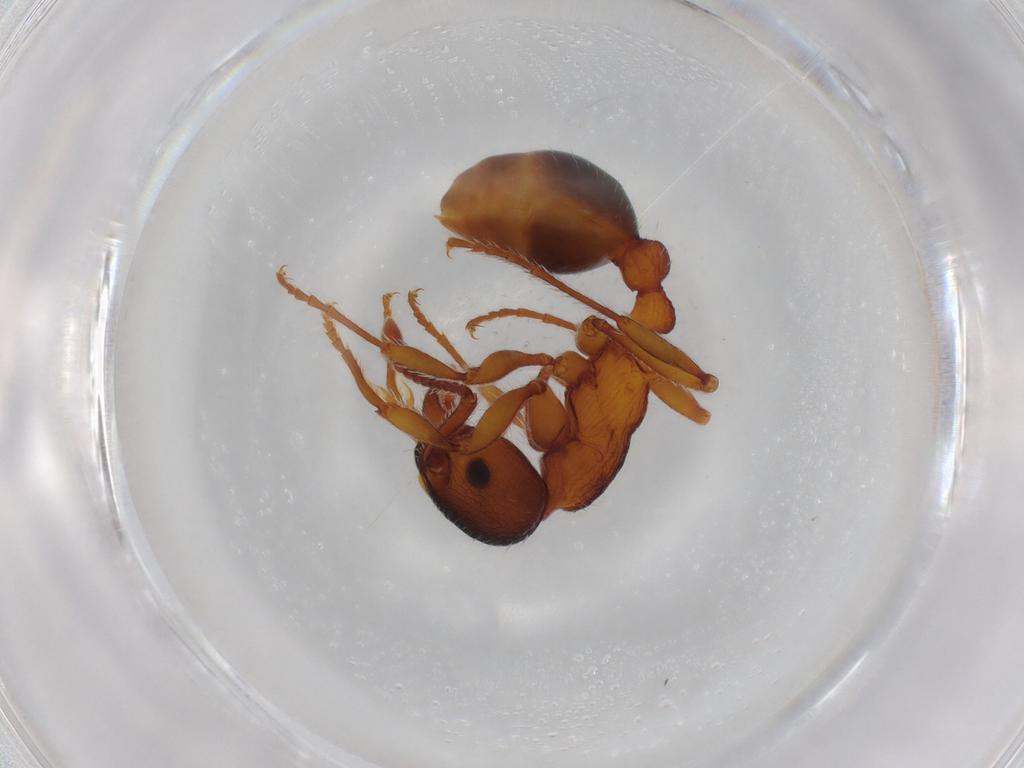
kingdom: Animalia
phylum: Arthropoda
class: Insecta
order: Hymenoptera
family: Formicidae
